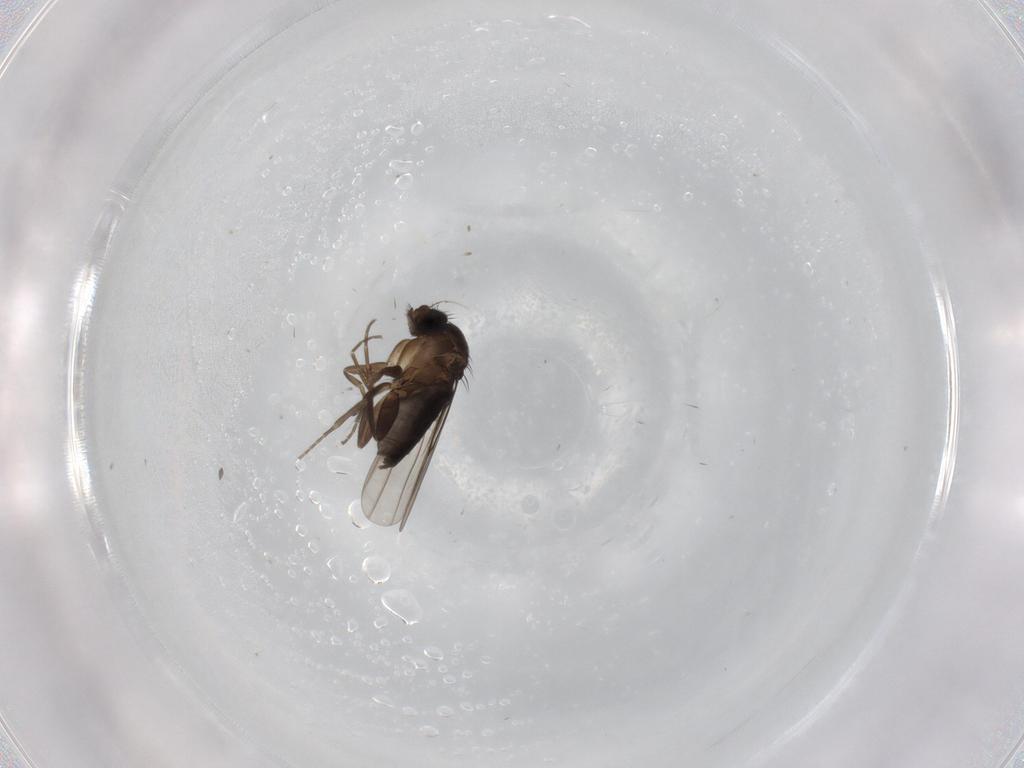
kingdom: Animalia
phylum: Arthropoda
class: Insecta
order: Diptera
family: Phoridae
